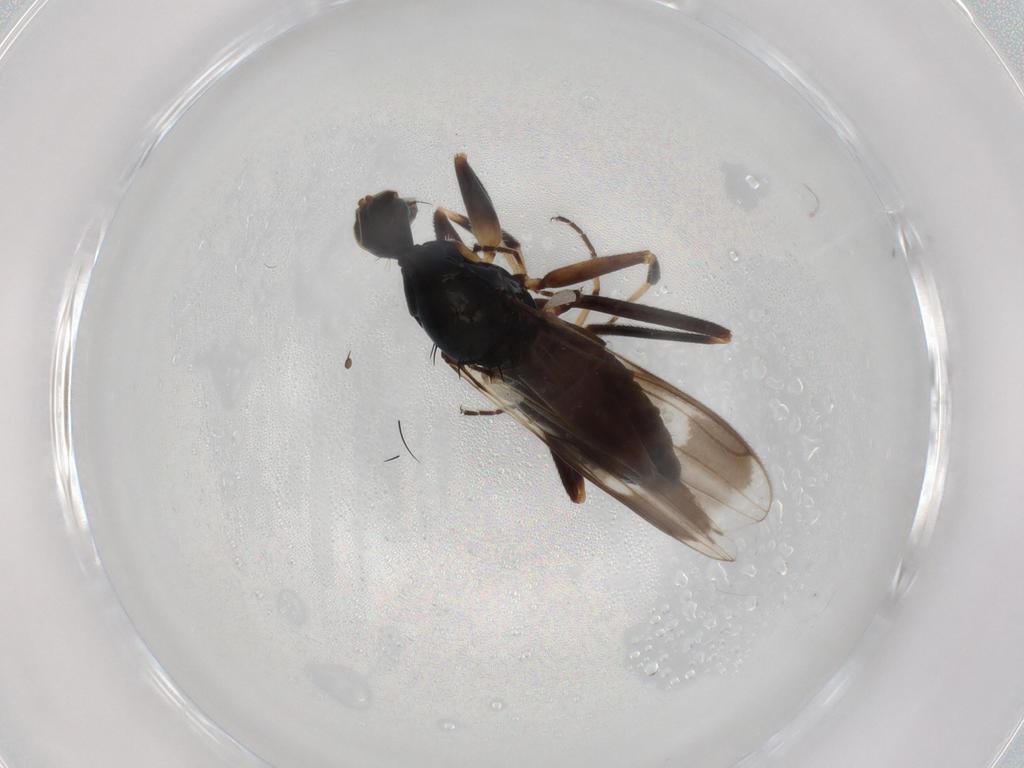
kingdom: Animalia
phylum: Arthropoda
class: Insecta
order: Diptera
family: Hybotidae
